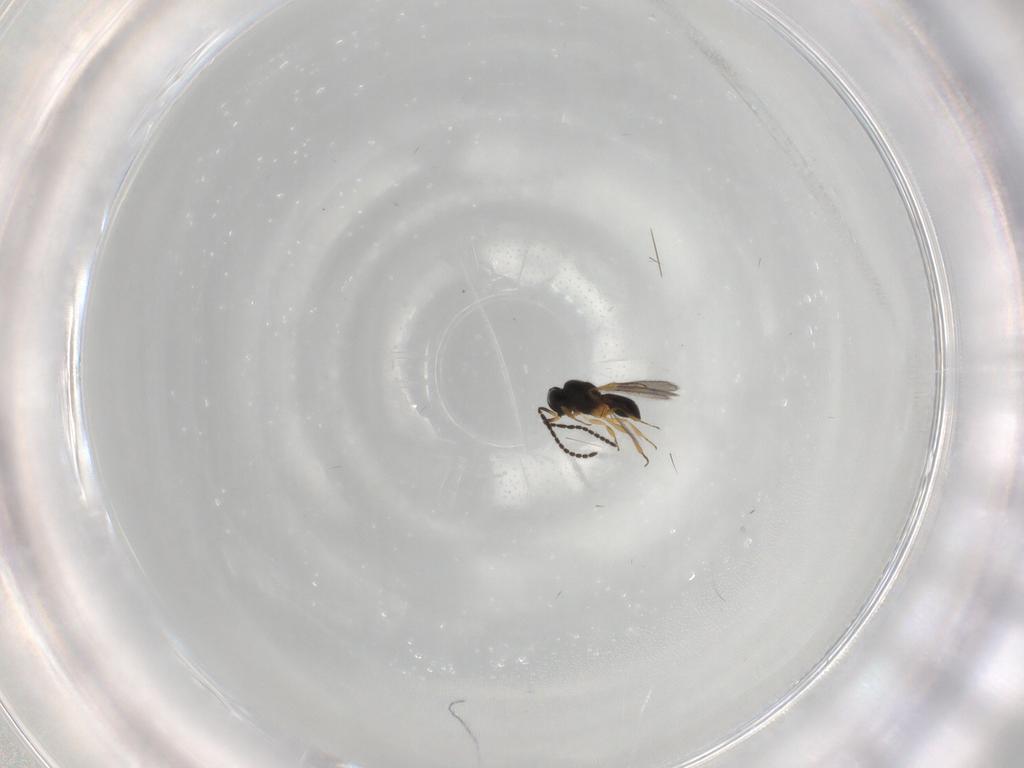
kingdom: Animalia
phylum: Arthropoda
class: Insecta
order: Hymenoptera
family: Scelionidae
